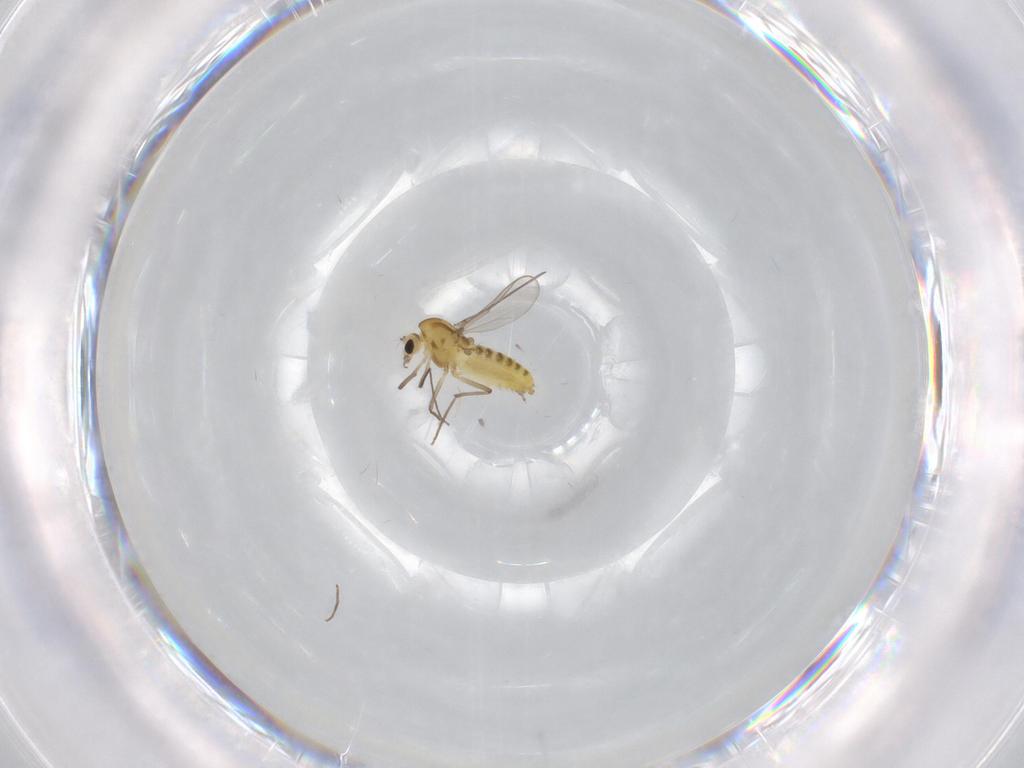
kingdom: Animalia
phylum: Arthropoda
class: Insecta
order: Diptera
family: Chironomidae
